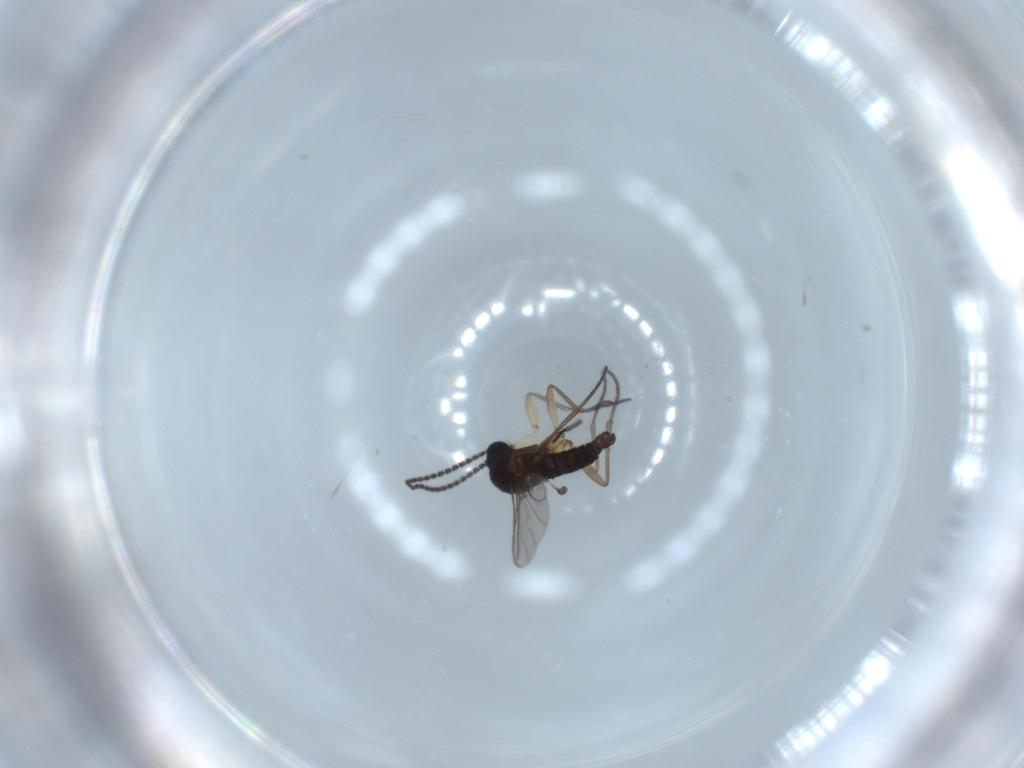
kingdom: Animalia
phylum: Arthropoda
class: Insecta
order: Diptera
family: Sciaridae
